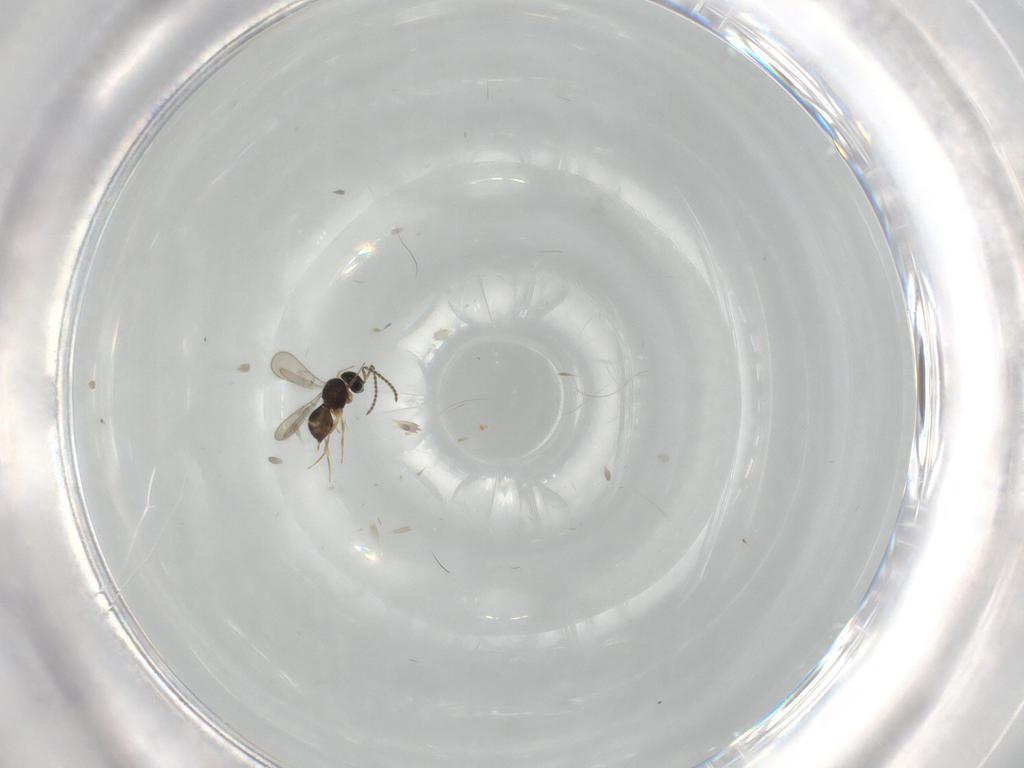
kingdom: Animalia
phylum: Arthropoda
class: Insecta
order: Hymenoptera
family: Scelionidae
